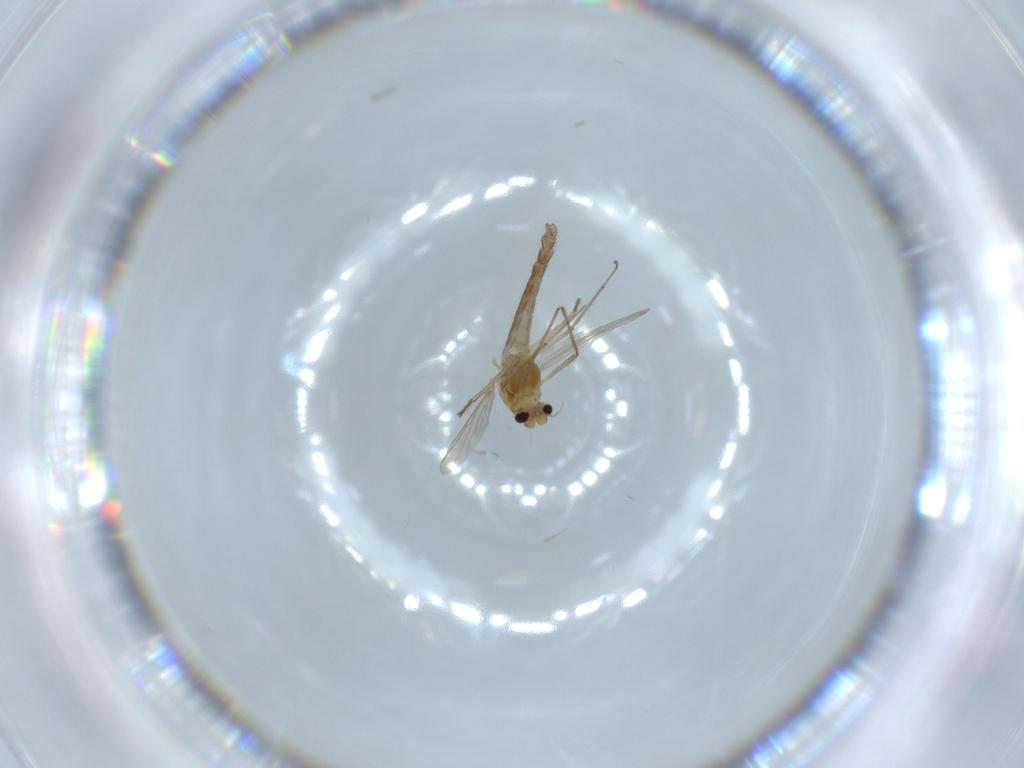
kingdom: Animalia
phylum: Arthropoda
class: Insecta
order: Diptera
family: Chironomidae
